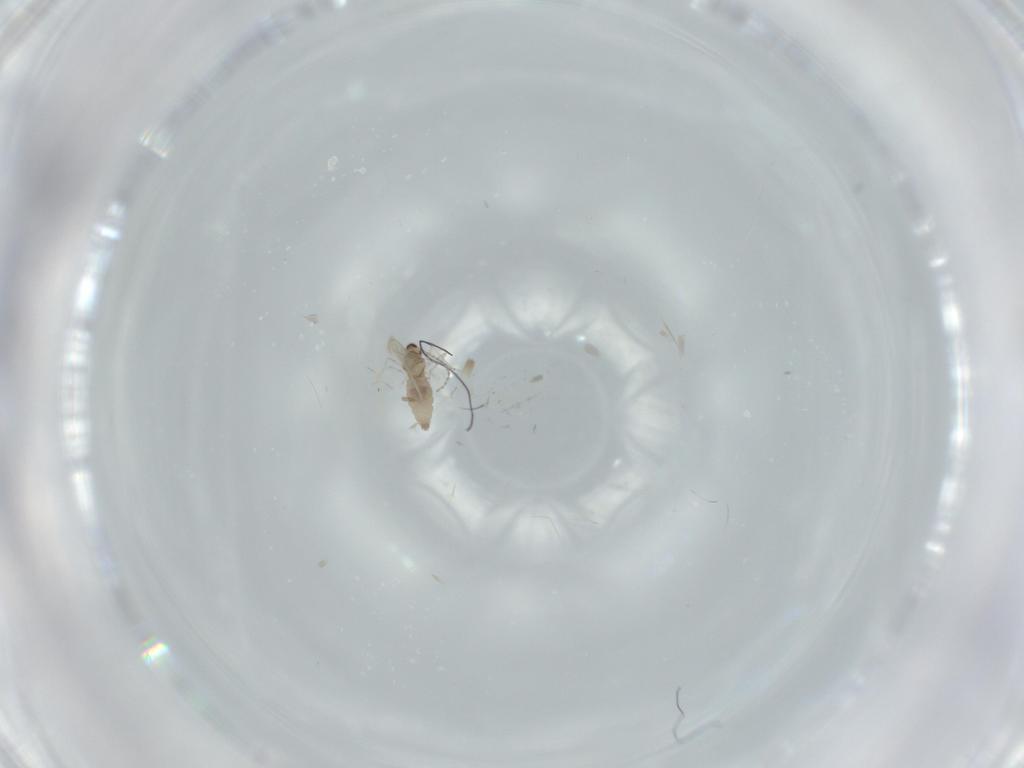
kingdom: Animalia
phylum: Arthropoda
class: Insecta
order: Diptera
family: Cecidomyiidae
